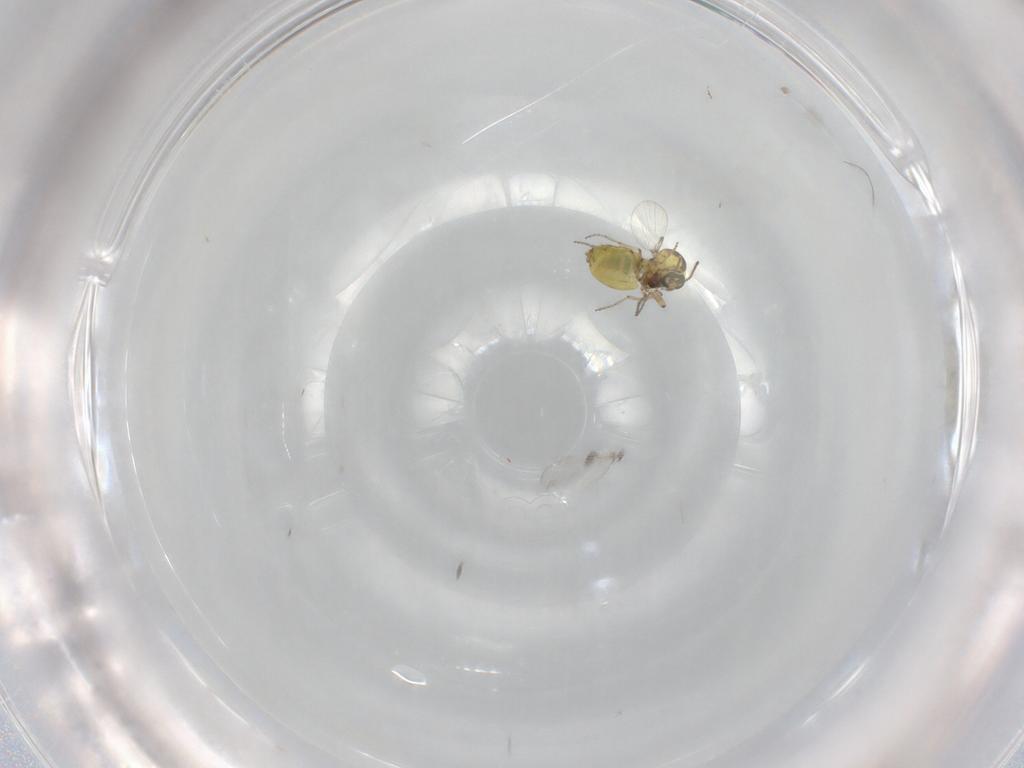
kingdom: Animalia
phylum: Arthropoda
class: Insecta
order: Diptera
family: Ceratopogonidae
